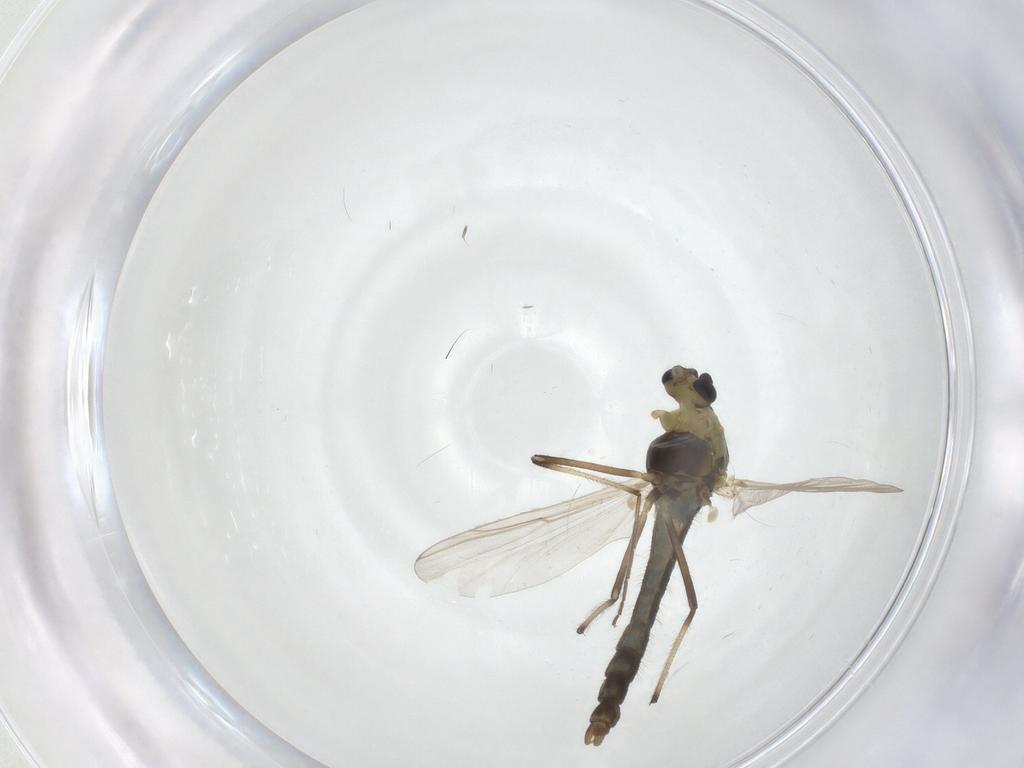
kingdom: Animalia
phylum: Arthropoda
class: Insecta
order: Diptera
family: Chironomidae
